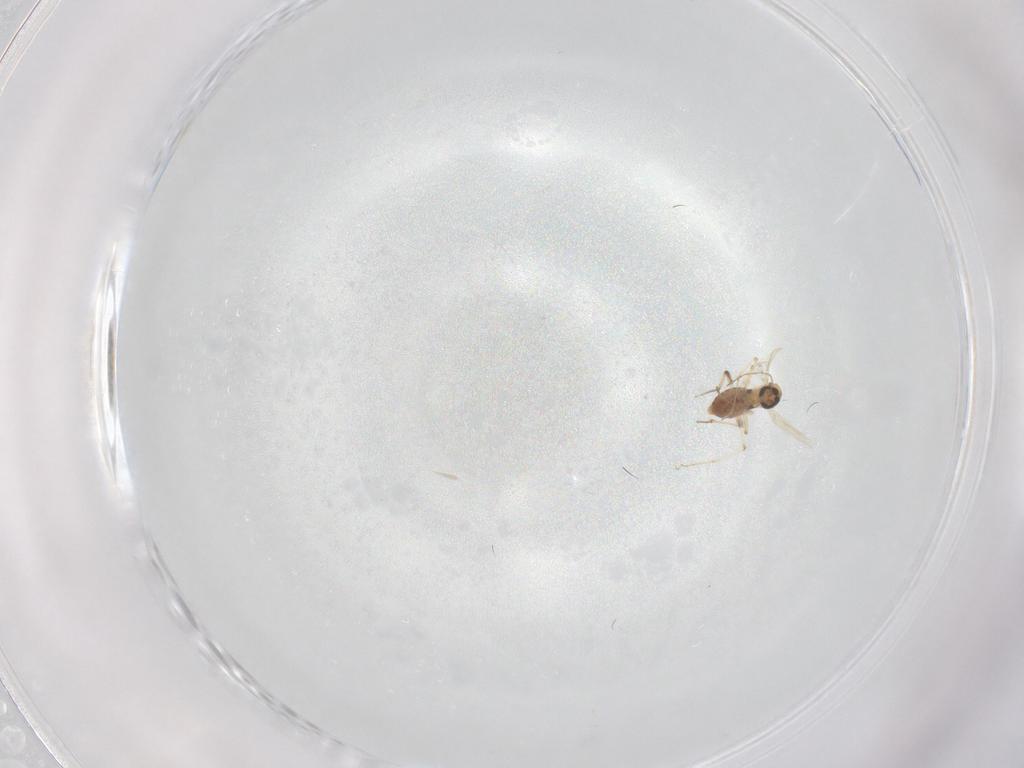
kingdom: Animalia
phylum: Arthropoda
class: Insecta
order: Diptera
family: Ceratopogonidae
